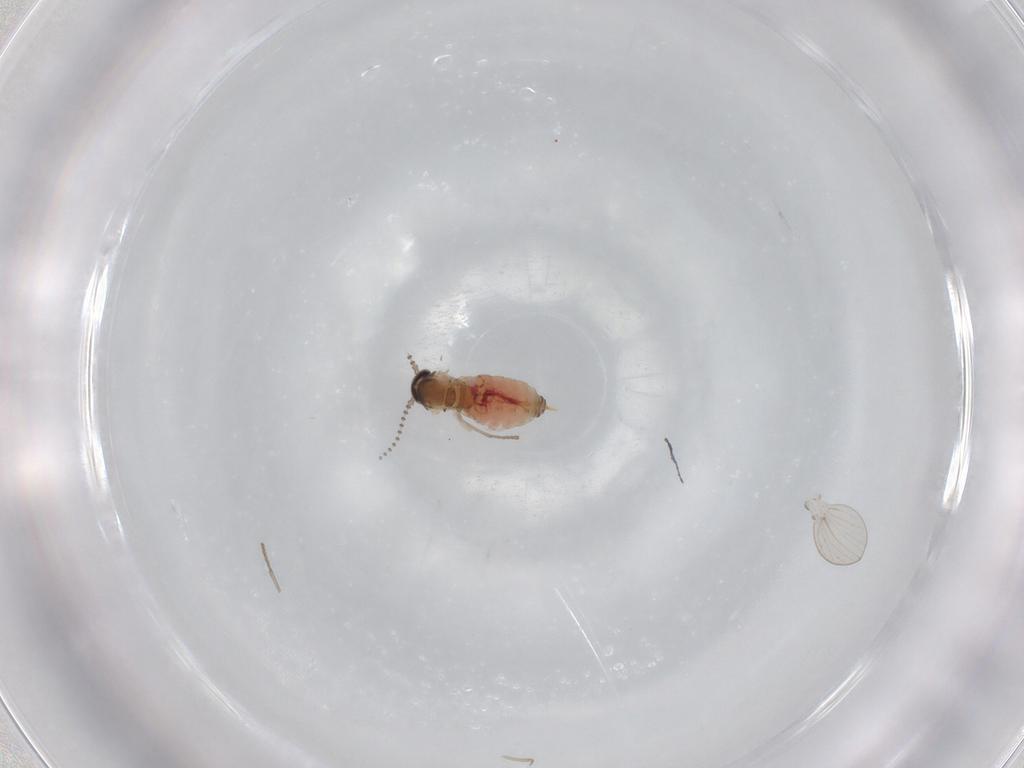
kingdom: Animalia
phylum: Arthropoda
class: Insecta
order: Diptera
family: Psychodidae
